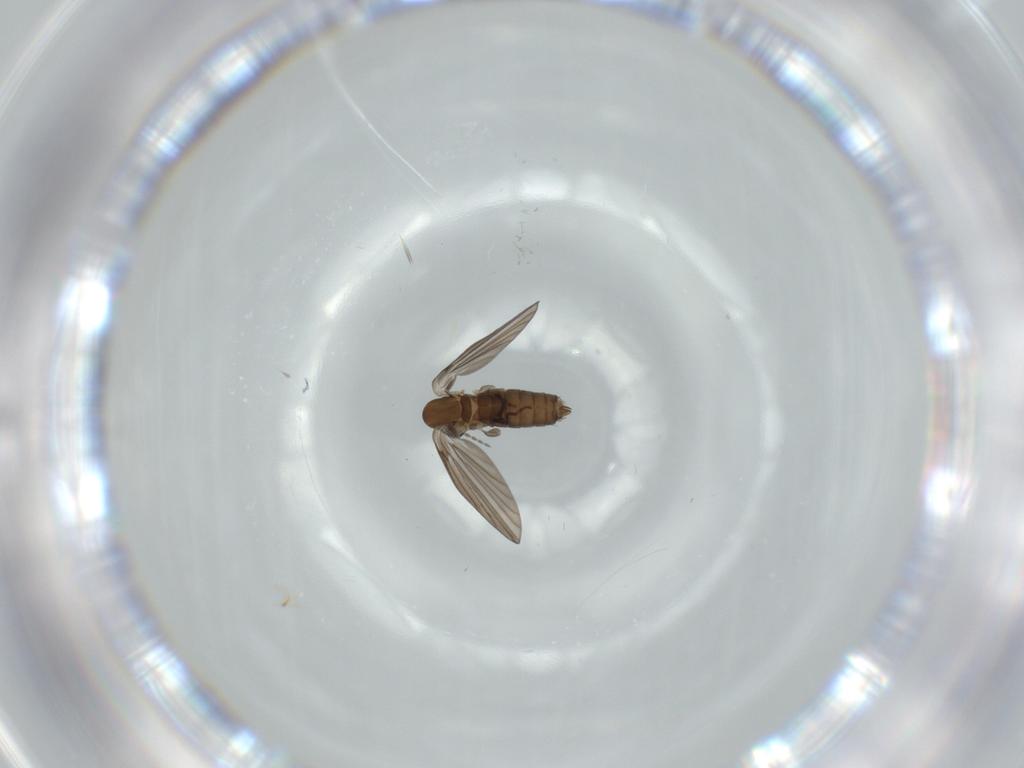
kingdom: Animalia
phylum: Arthropoda
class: Insecta
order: Diptera
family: Psychodidae
